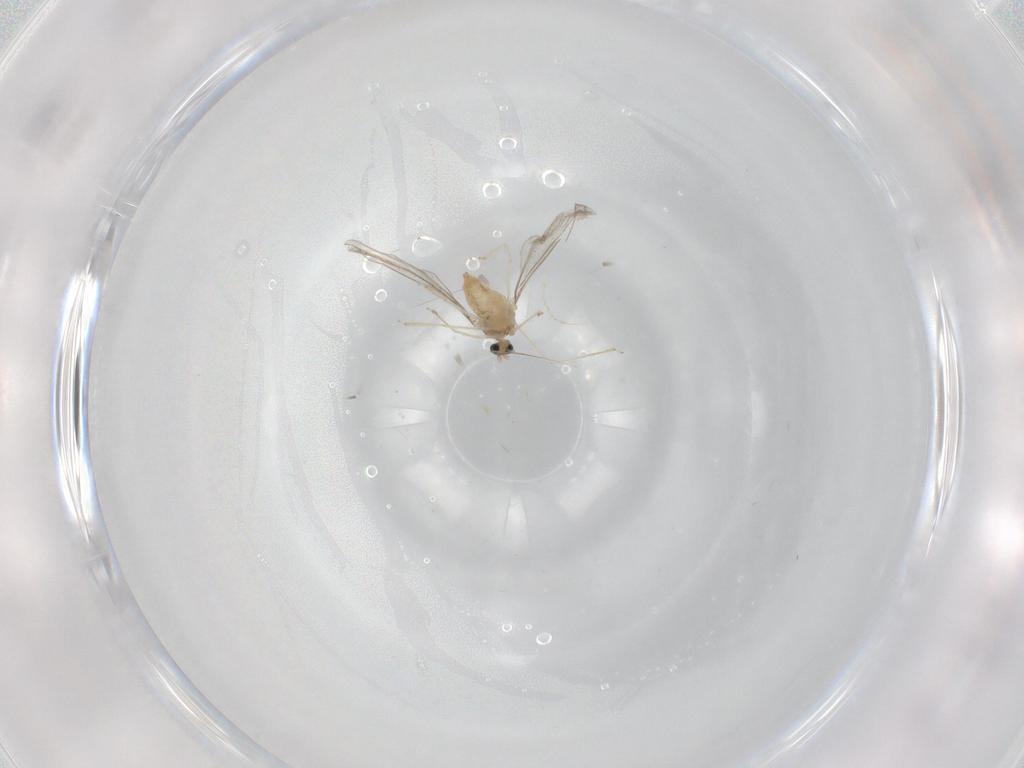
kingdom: Animalia
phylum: Arthropoda
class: Insecta
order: Diptera
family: Cecidomyiidae
